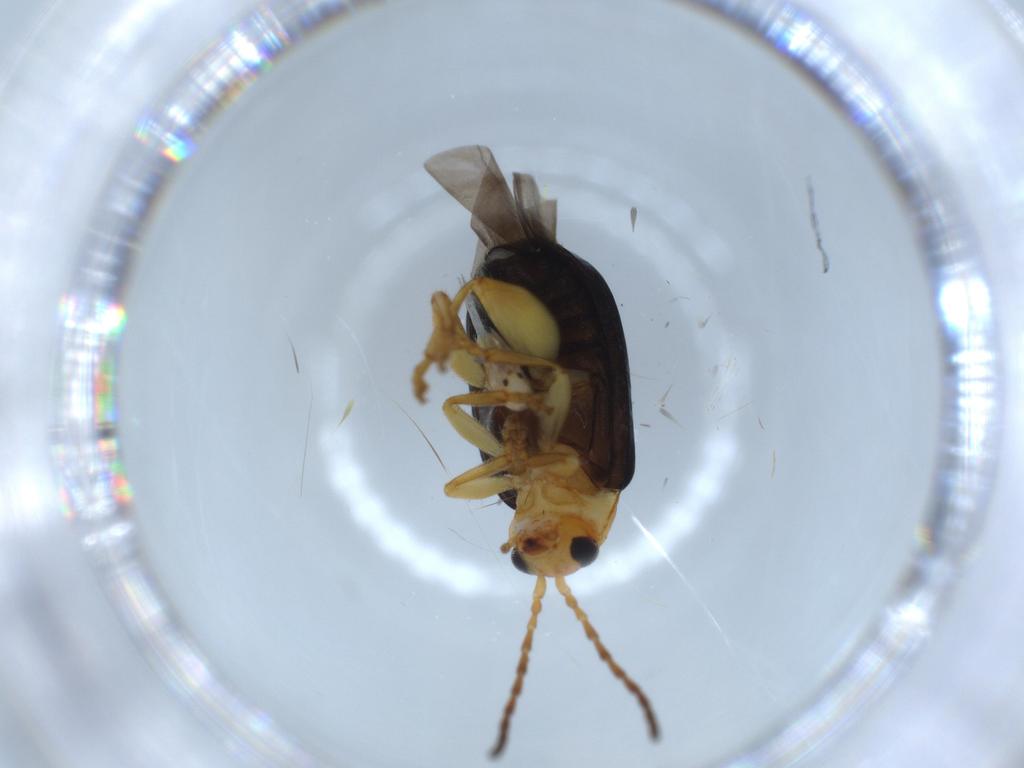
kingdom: Animalia
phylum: Arthropoda
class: Insecta
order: Coleoptera
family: Chrysomelidae
